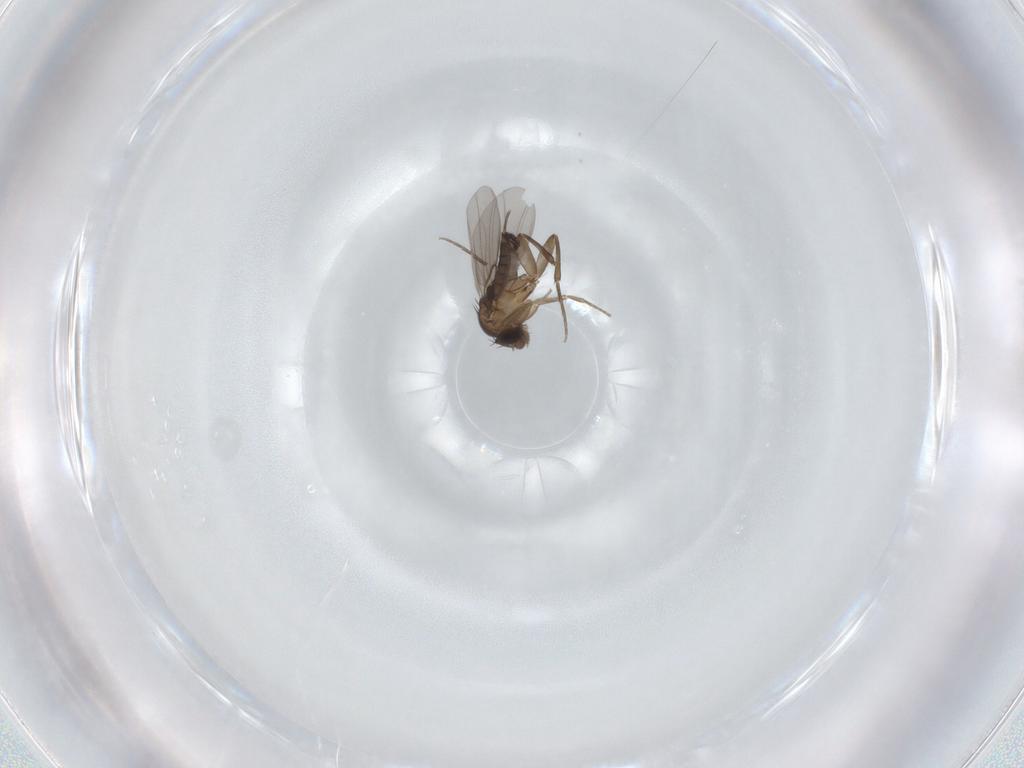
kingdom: Animalia
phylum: Arthropoda
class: Insecta
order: Diptera
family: Phoridae
